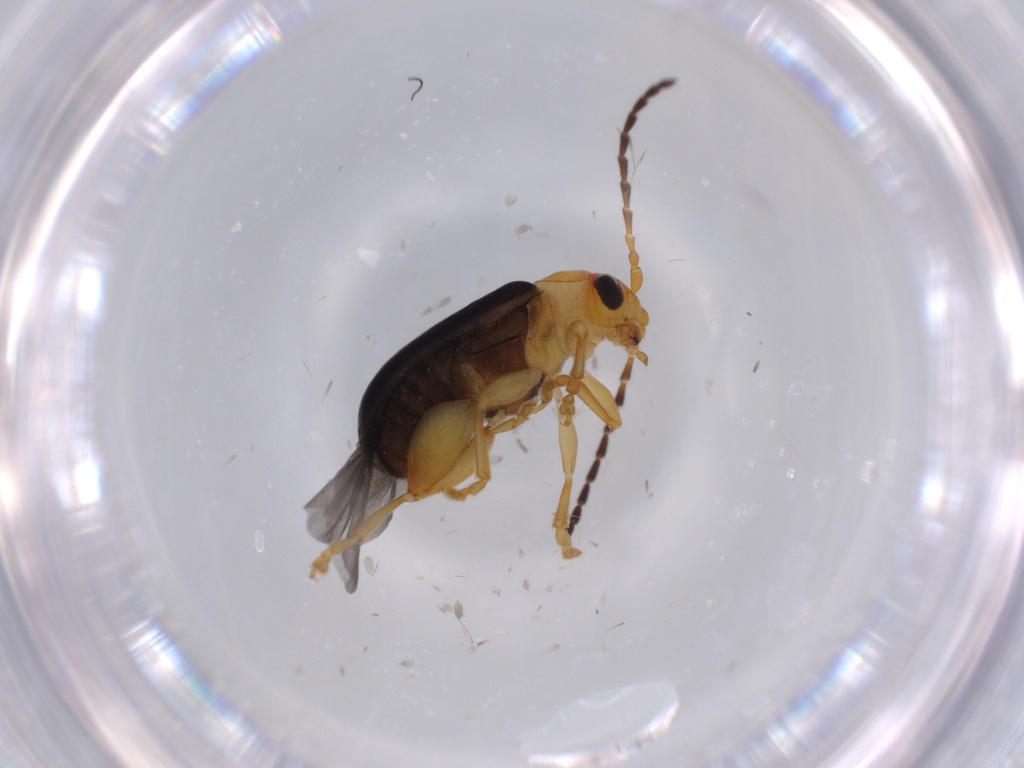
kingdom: Animalia
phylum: Arthropoda
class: Insecta
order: Coleoptera
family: Chrysomelidae
